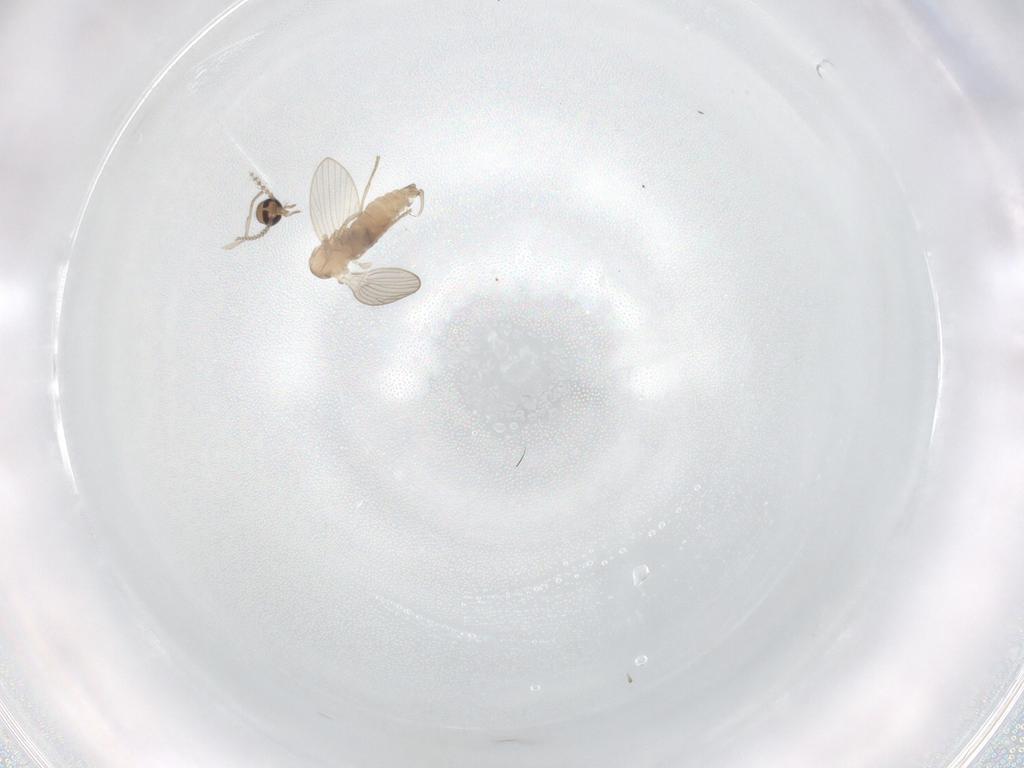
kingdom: Animalia
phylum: Arthropoda
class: Insecta
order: Diptera
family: Psychodidae
